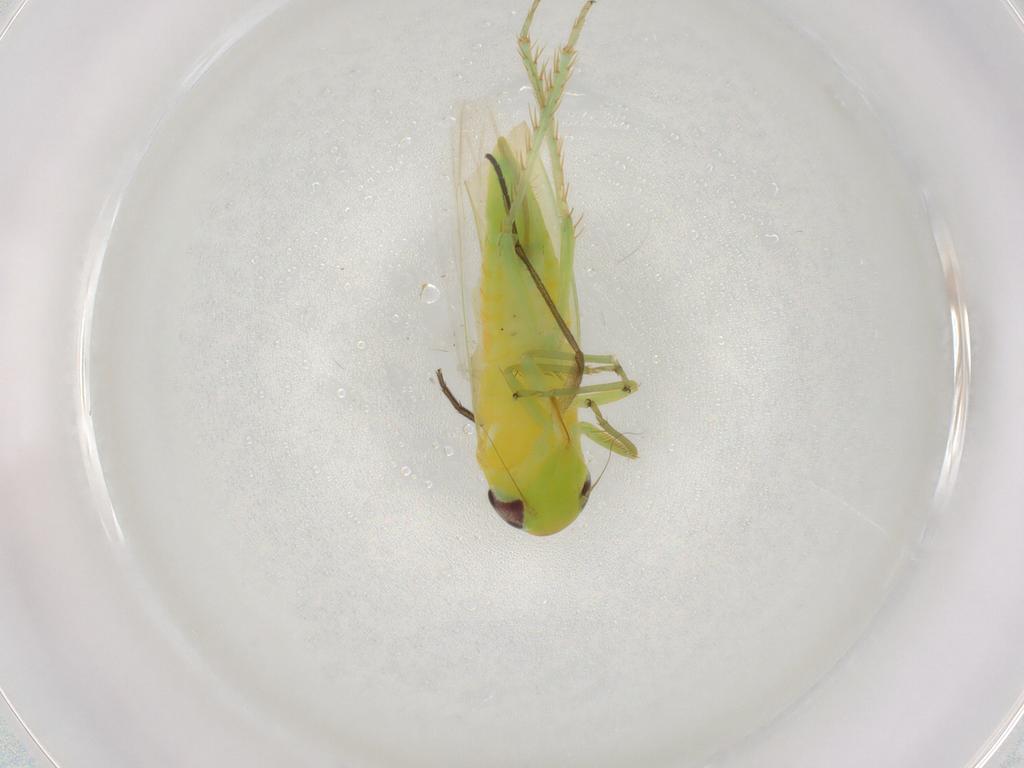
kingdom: Animalia
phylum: Arthropoda
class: Insecta
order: Hemiptera
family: Cicadellidae
